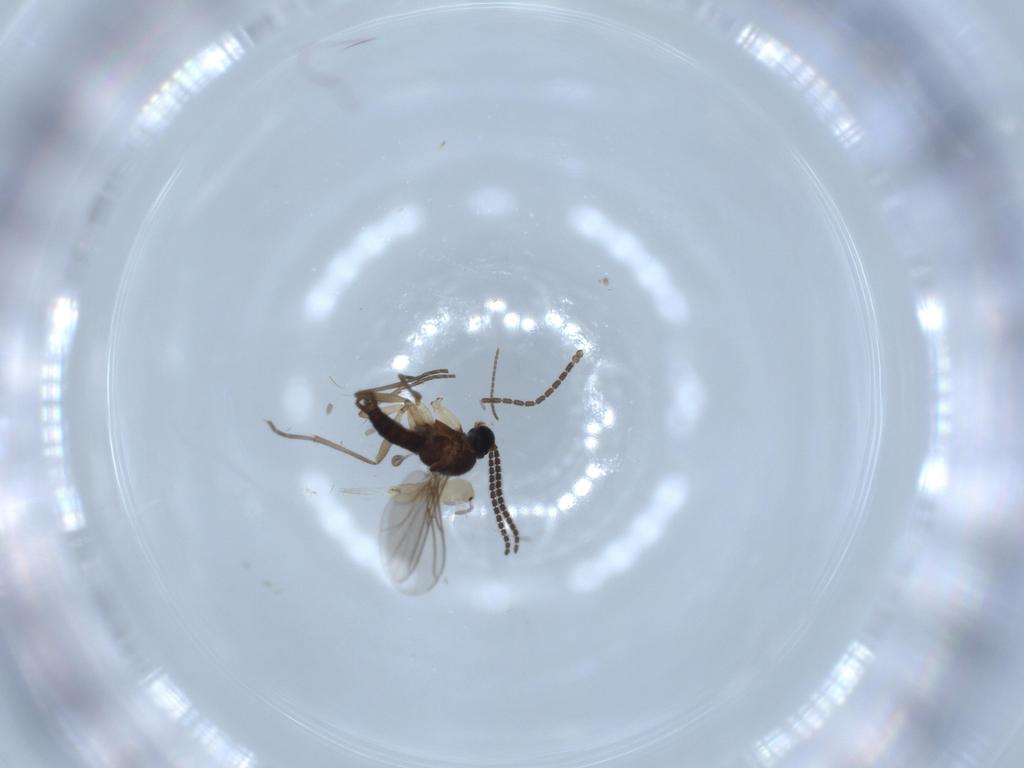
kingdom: Animalia
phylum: Arthropoda
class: Insecta
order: Diptera
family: Cecidomyiidae
